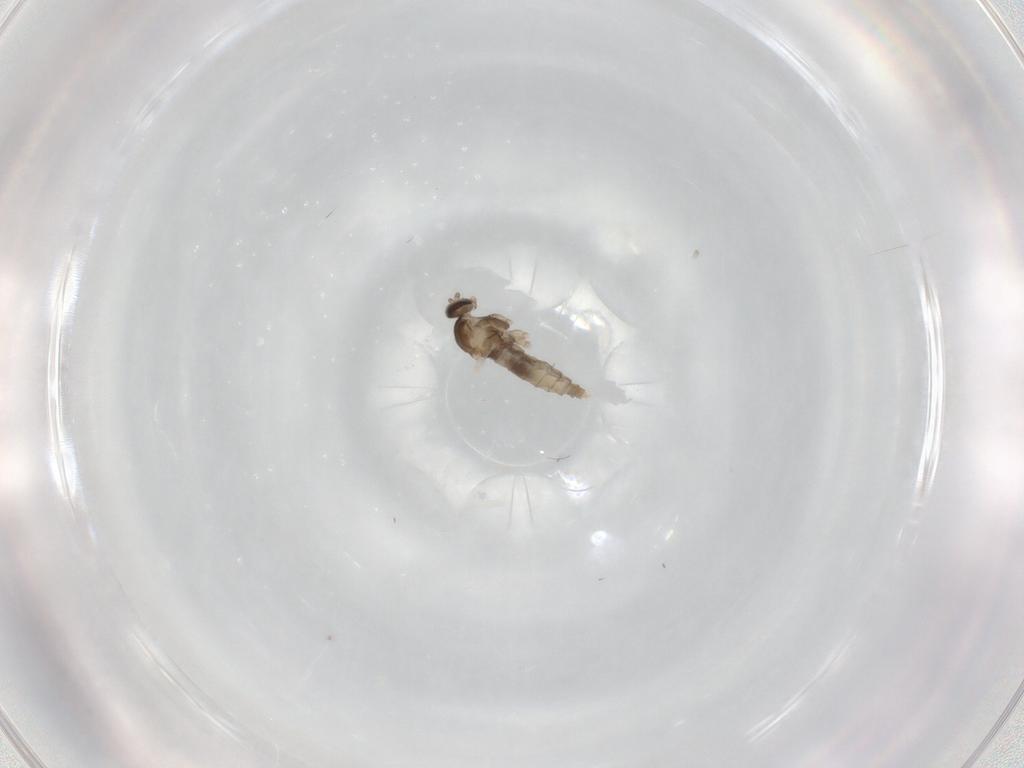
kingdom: Animalia
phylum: Arthropoda
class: Insecta
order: Diptera
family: Cecidomyiidae
